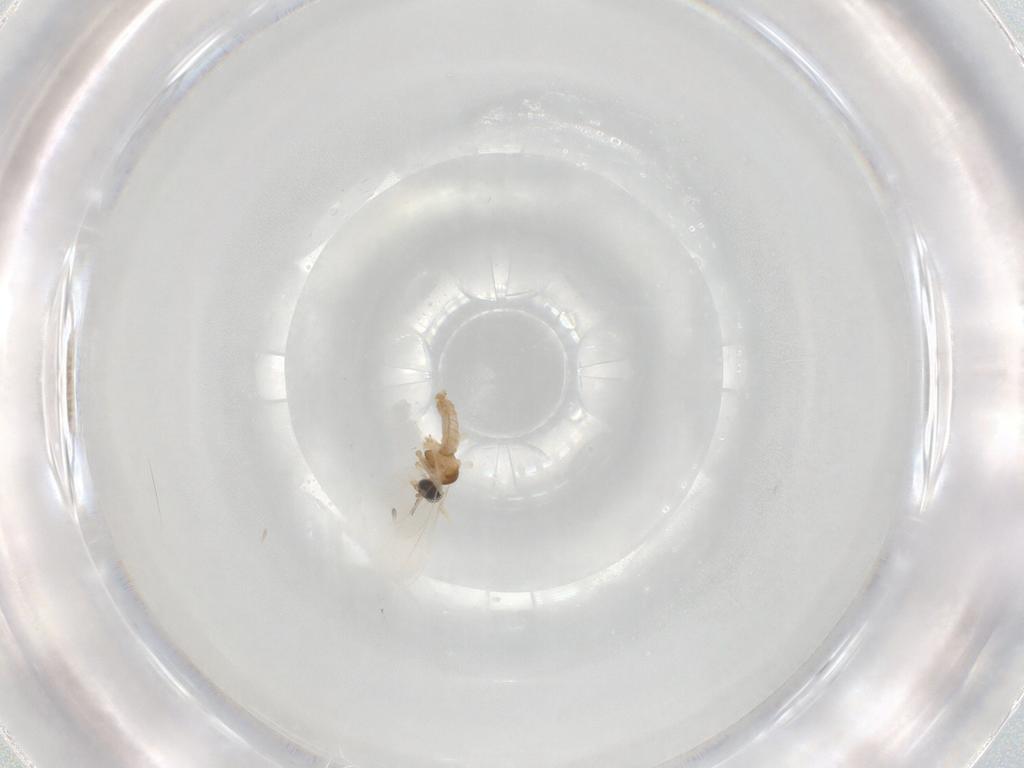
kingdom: Animalia
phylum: Arthropoda
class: Insecta
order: Diptera
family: Cecidomyiidae
